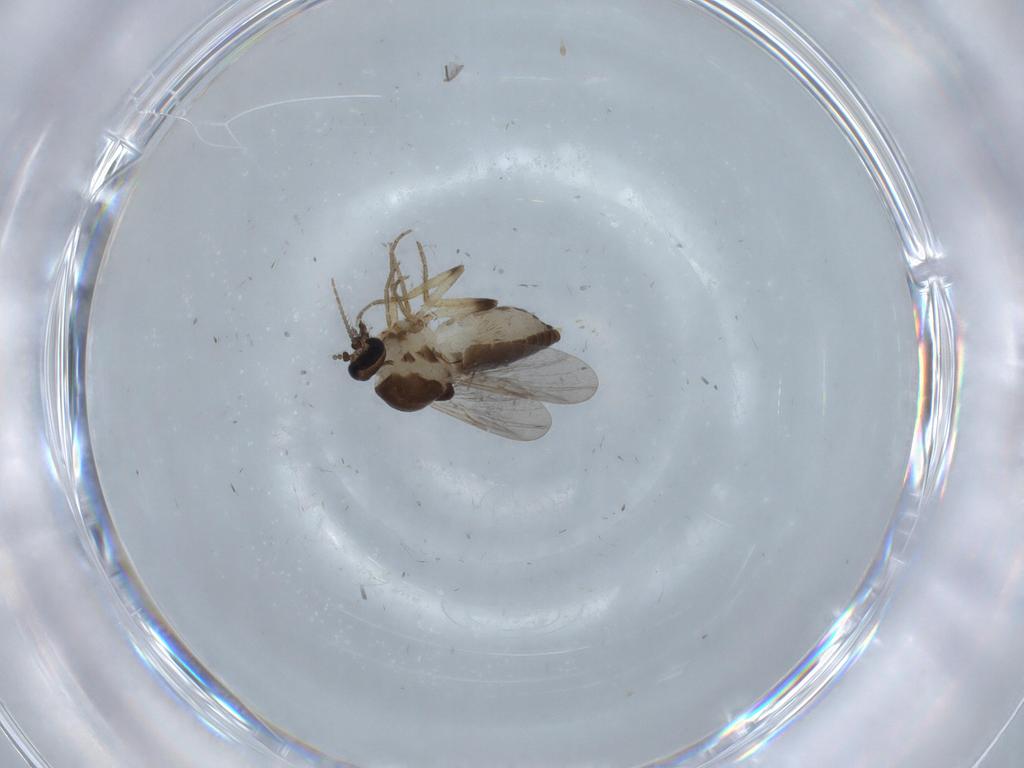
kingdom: Animalia
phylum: Arthropoda
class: Insecta
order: Diptera
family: Ceratopogonidae
